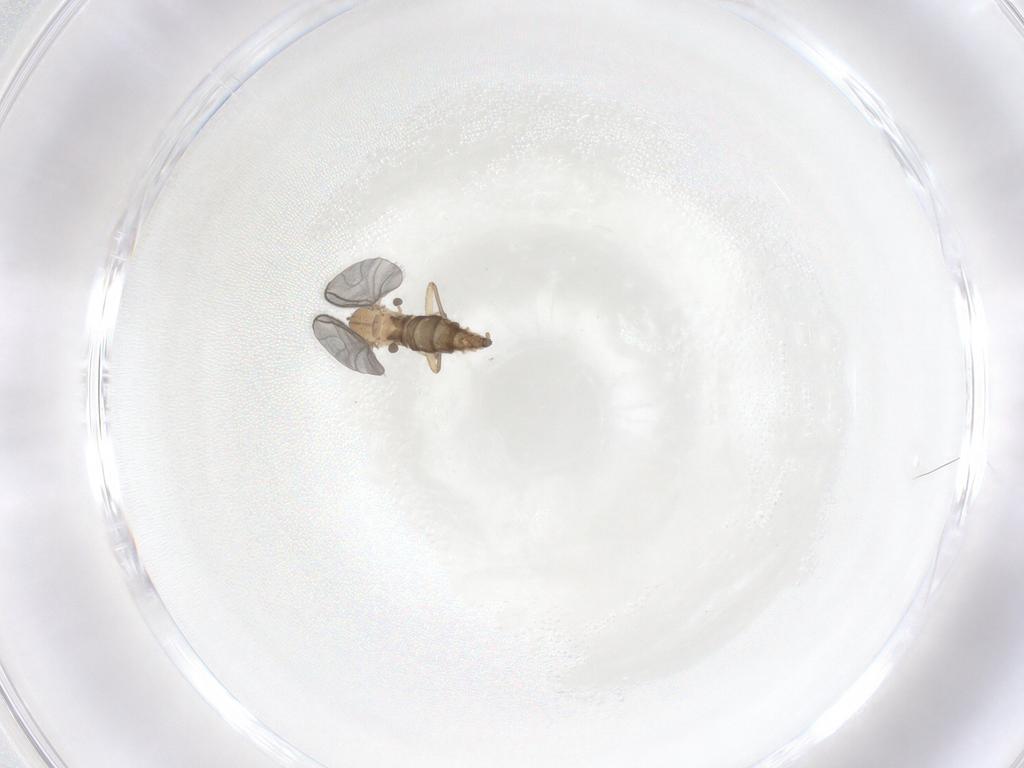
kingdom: Animalia
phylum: Arthropoda
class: Insecta
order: Diptera
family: Sciaridae
